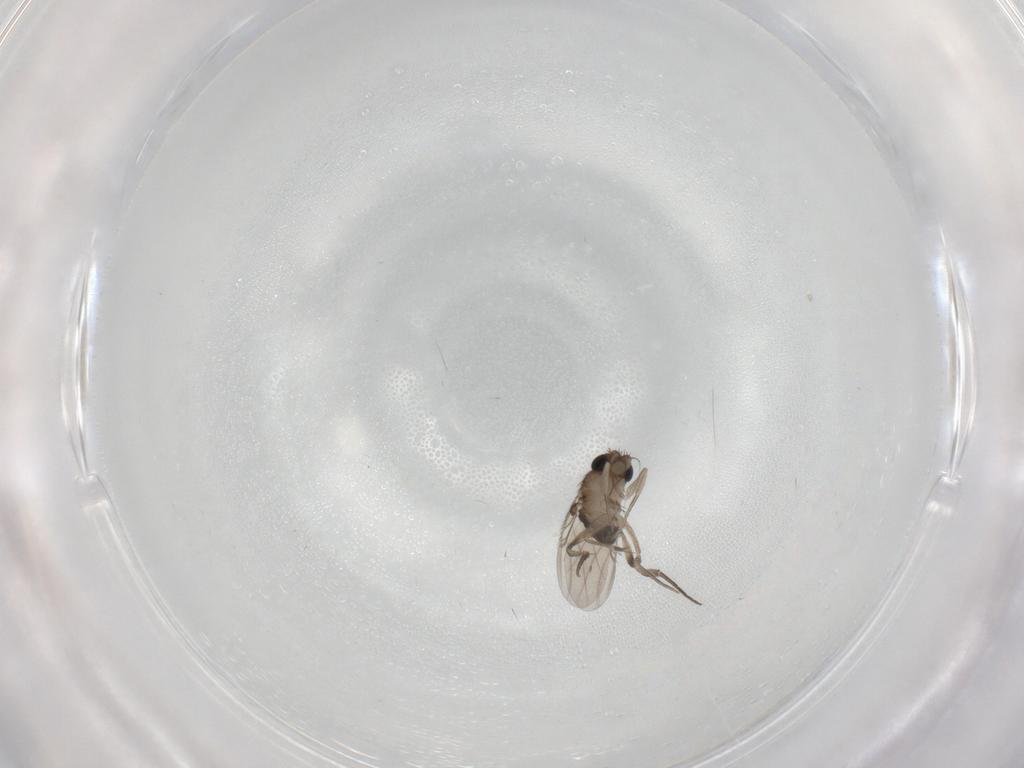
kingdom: Animalia
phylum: Arthropoda
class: Insecta
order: Diptera
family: Phoridae
